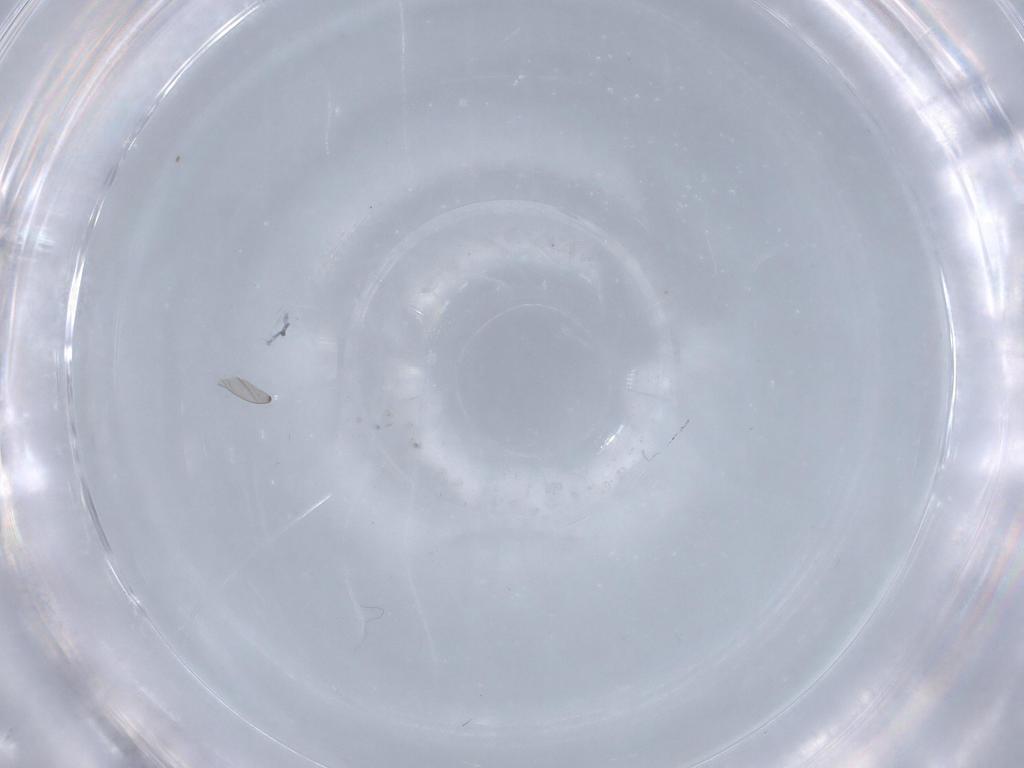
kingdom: Animalia
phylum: Arthropoda
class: Insecta
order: Diptera
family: Chironomidae
